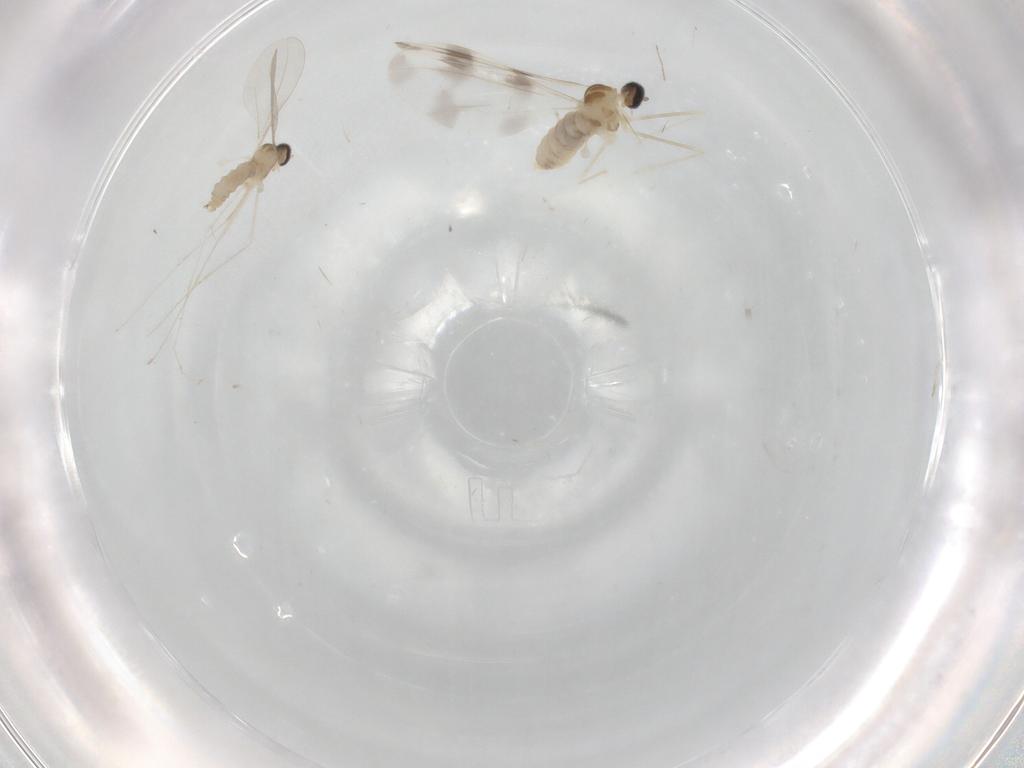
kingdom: Animalia
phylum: Arthropoda
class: Insecta
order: Diptera
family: Cecidomyiidae
